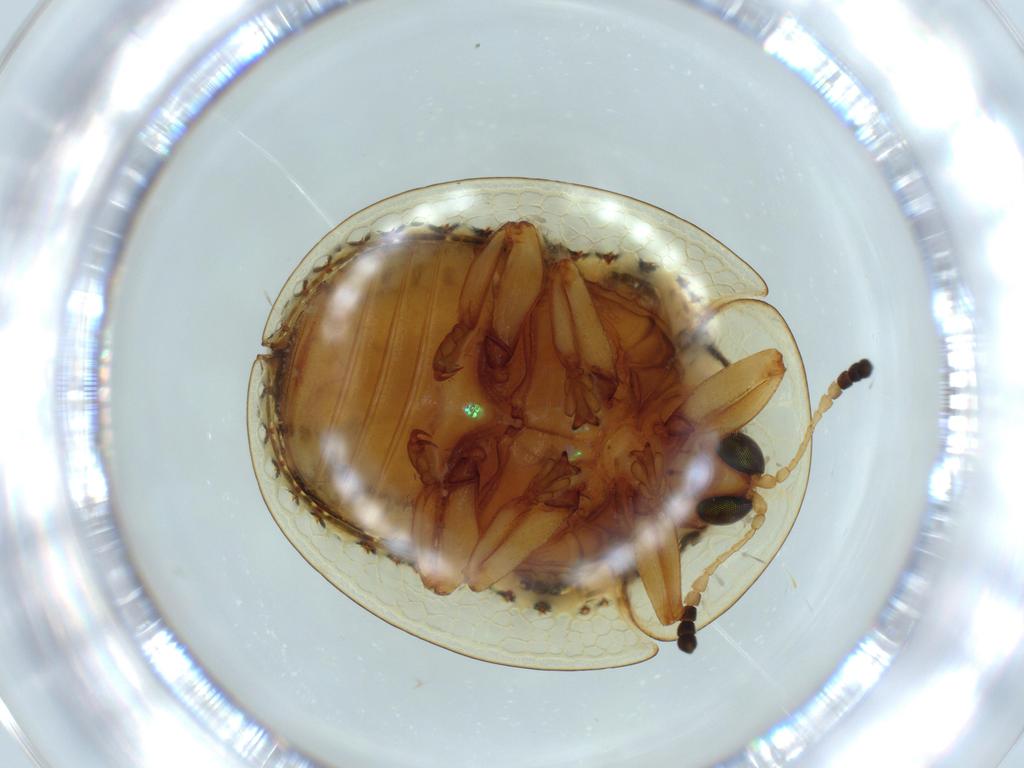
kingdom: Animalia
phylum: Arthropoda
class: Insecta
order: Coleoptera
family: Chrysomelidae
